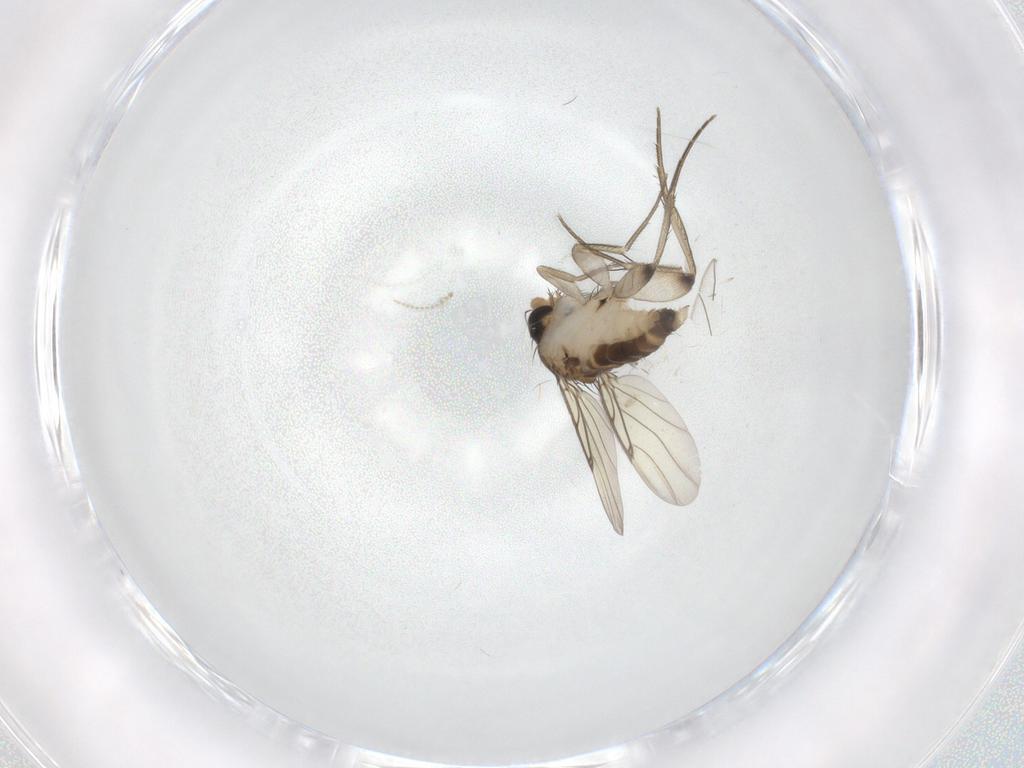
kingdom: Animalia
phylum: Arthropoda
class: Insecta
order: Diptera
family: Phoridae
